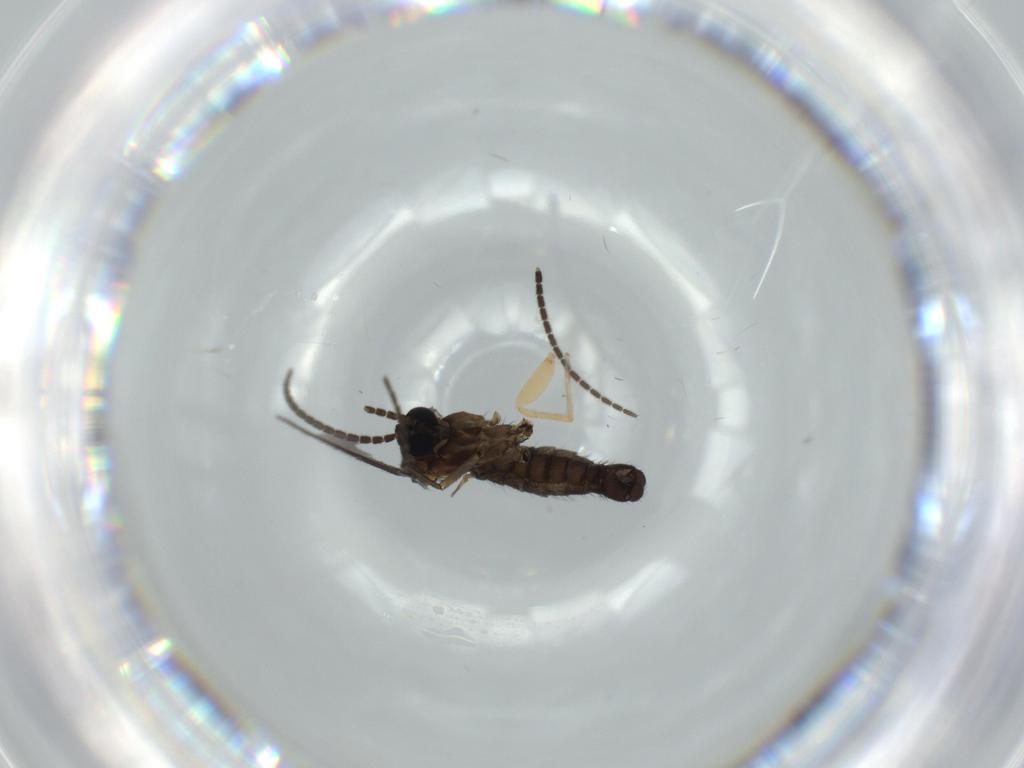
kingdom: Animalia
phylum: Arthropoda
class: Insecta
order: Diptera
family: Sciaridae
